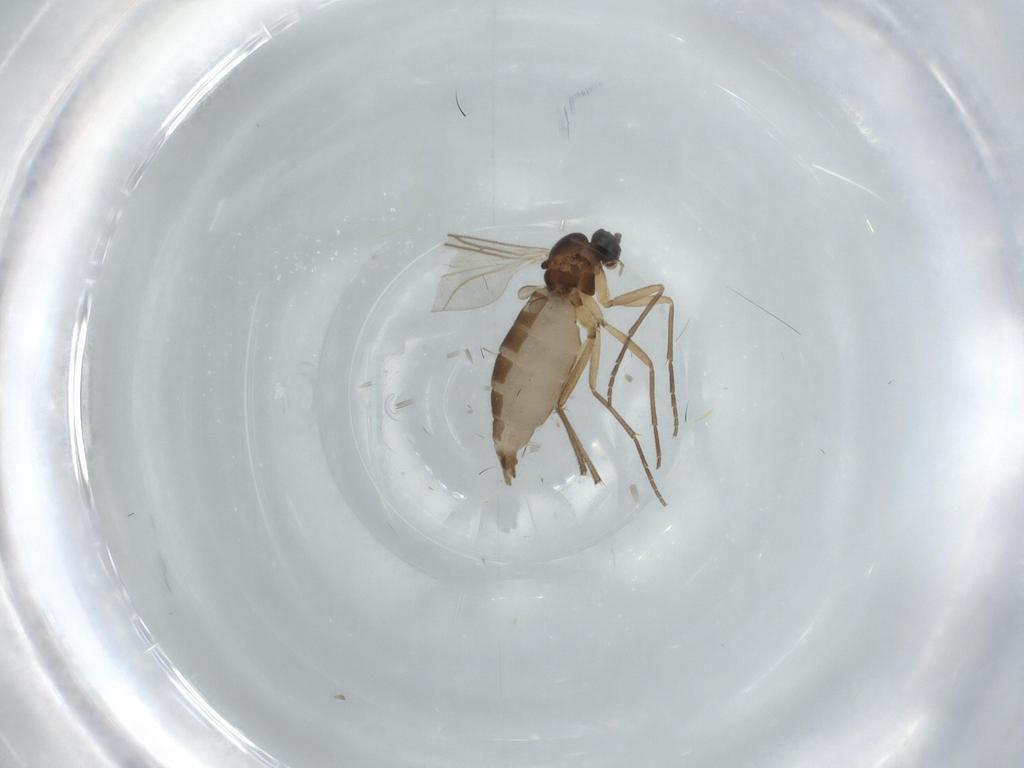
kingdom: Animalia
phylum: Arthropoda
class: Insecta
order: Diptera
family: Sciaridae
